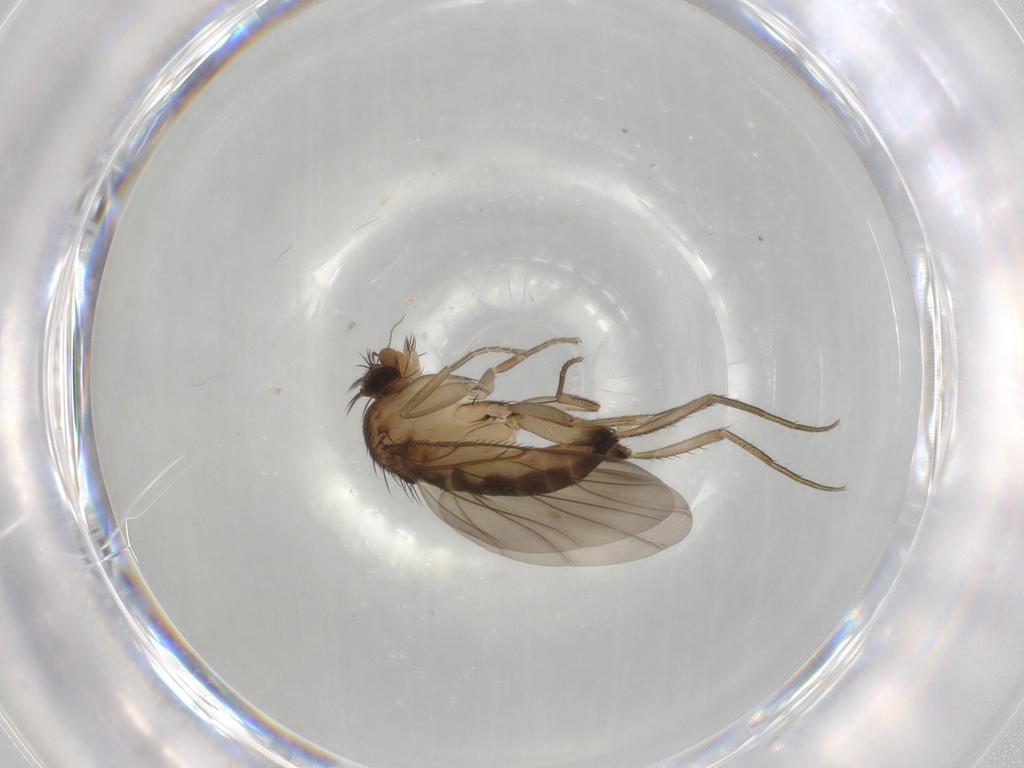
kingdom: Animalia
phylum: Arthropoda
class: Insecta
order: Diptera
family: Phoridae
